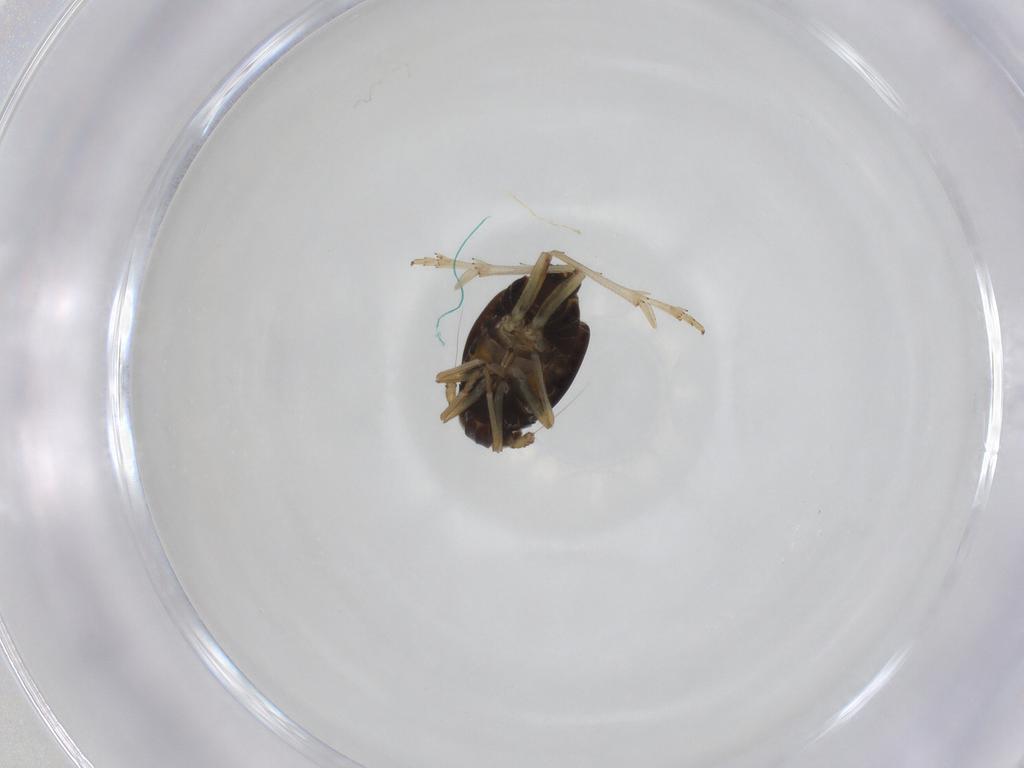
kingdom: Animalia
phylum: Arthropoda
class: Insecta
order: Hemiptera
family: Delphacidae
